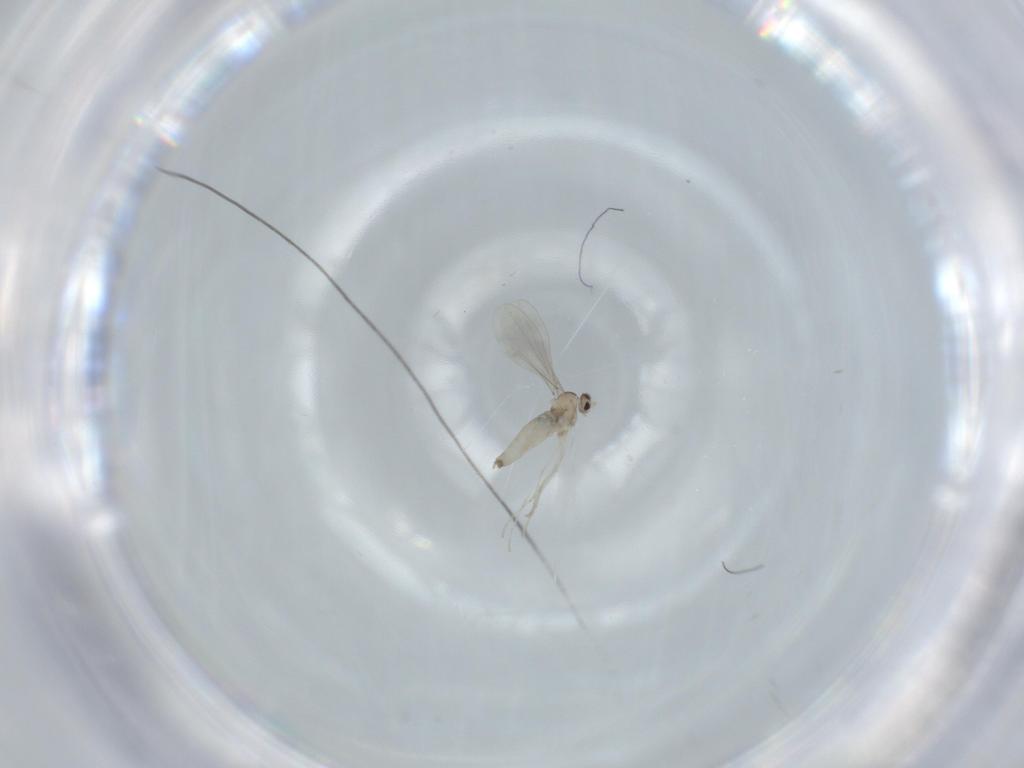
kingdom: Animalia
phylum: Arthropoda
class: Insecta
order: Diptera
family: Cecidomyiidae
